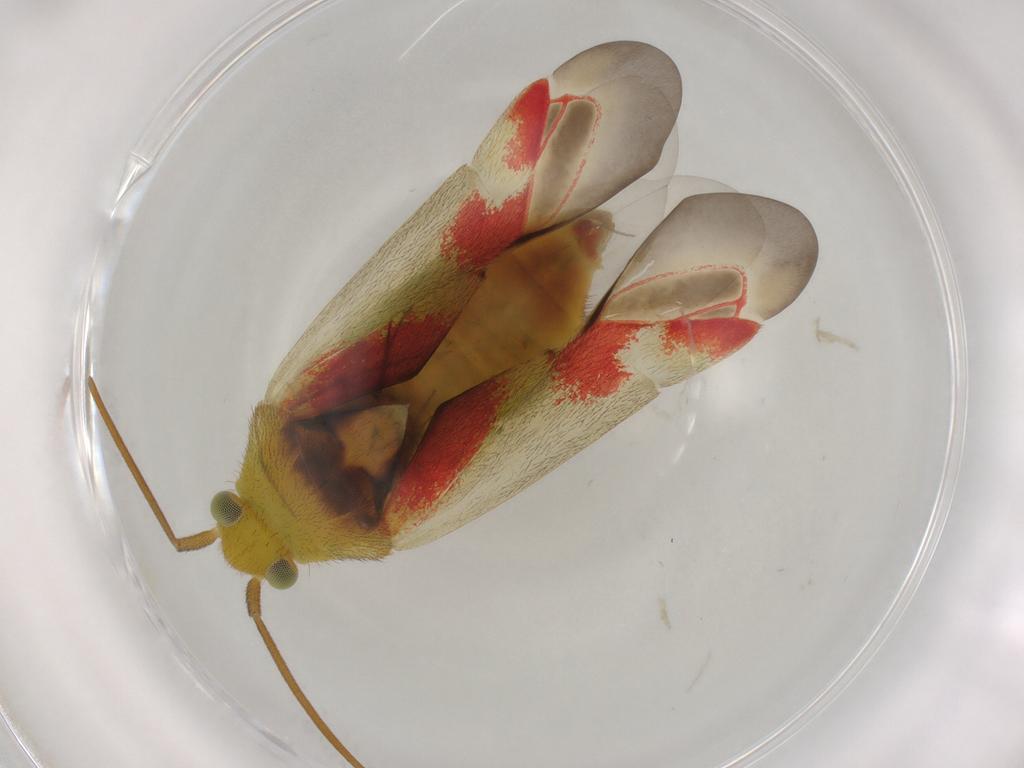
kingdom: Animalia
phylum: Arthropoda
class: Insecta
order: Hemiptera
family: Miridae
